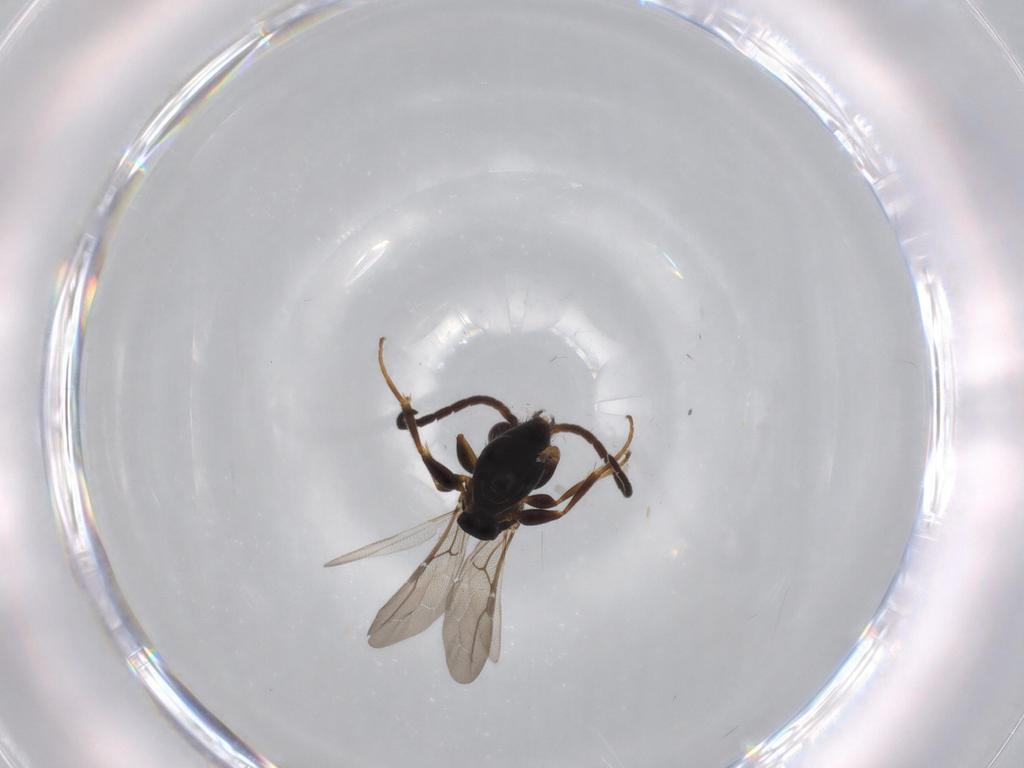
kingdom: Animalia
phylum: Arthropoda
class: Insecta
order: Hymenoptera
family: Bethylidae
